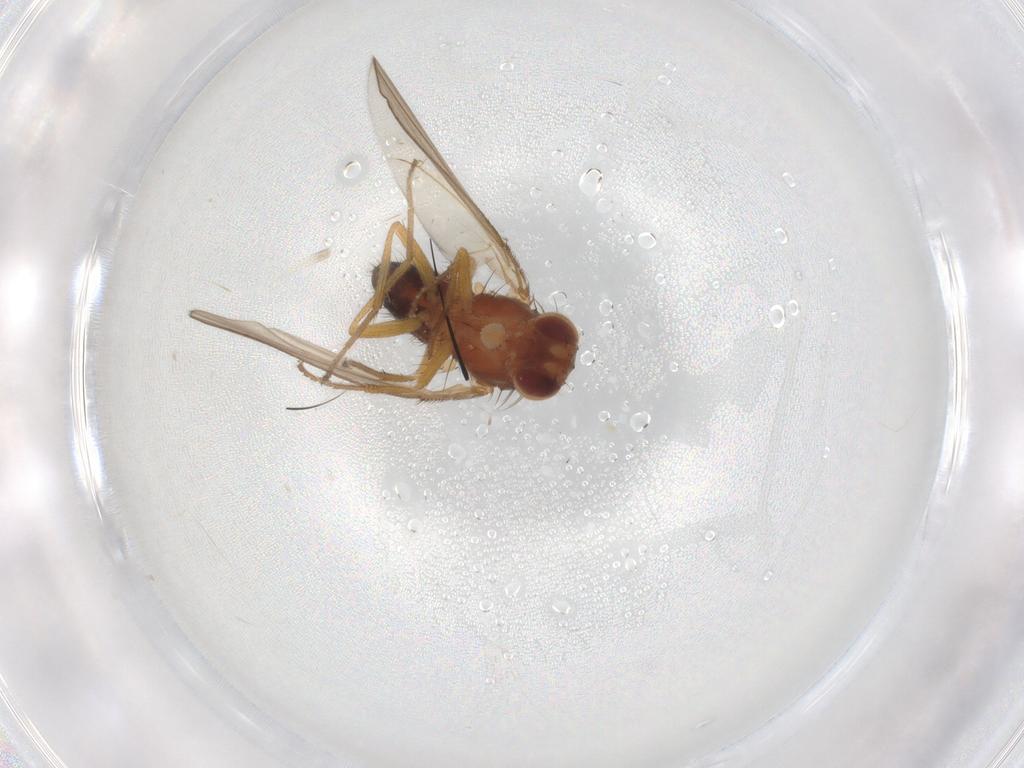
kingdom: Animalia
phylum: Arthropoda
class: Insecta
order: Diptera
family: Drosophilidae
